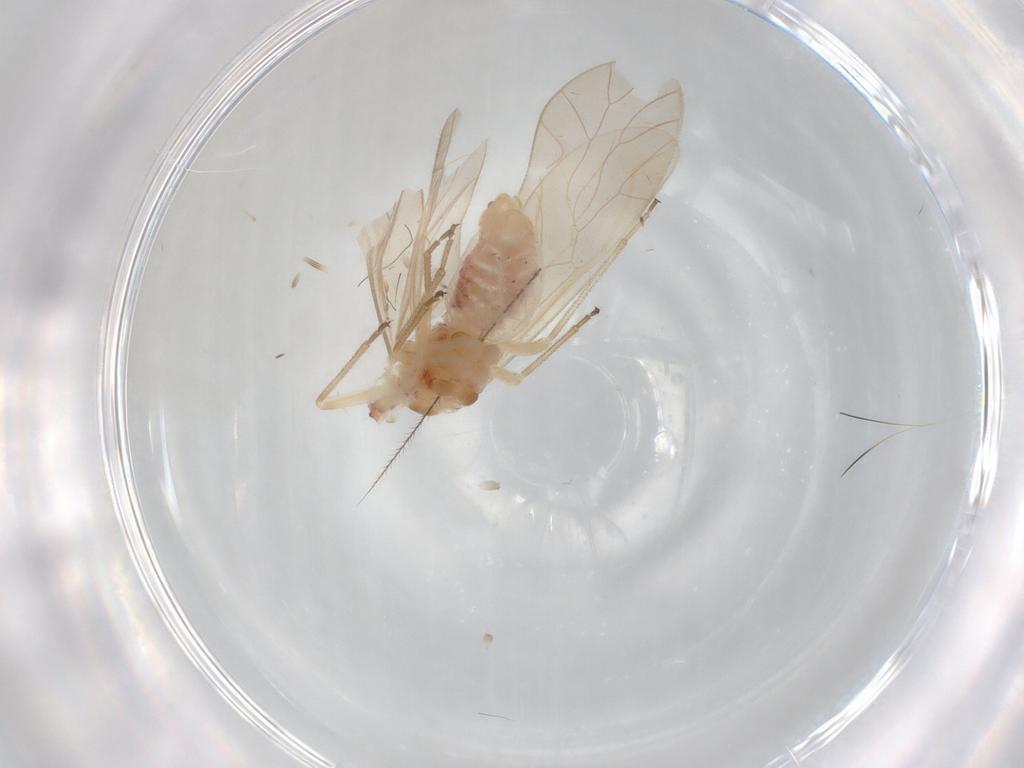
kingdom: Animalia
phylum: Arthropoda
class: Insecta
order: Psocodea
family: Caeciliusidae
